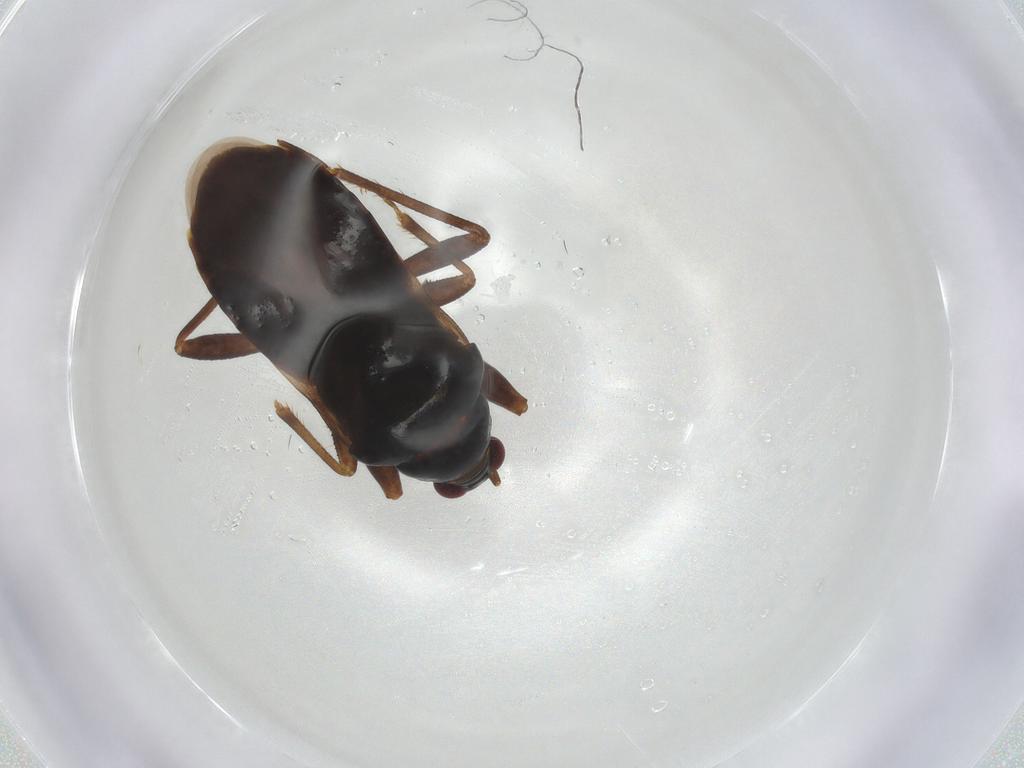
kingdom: Animalia
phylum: Arthropoda
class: Insecta
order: Hemiptera
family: Nabidae
